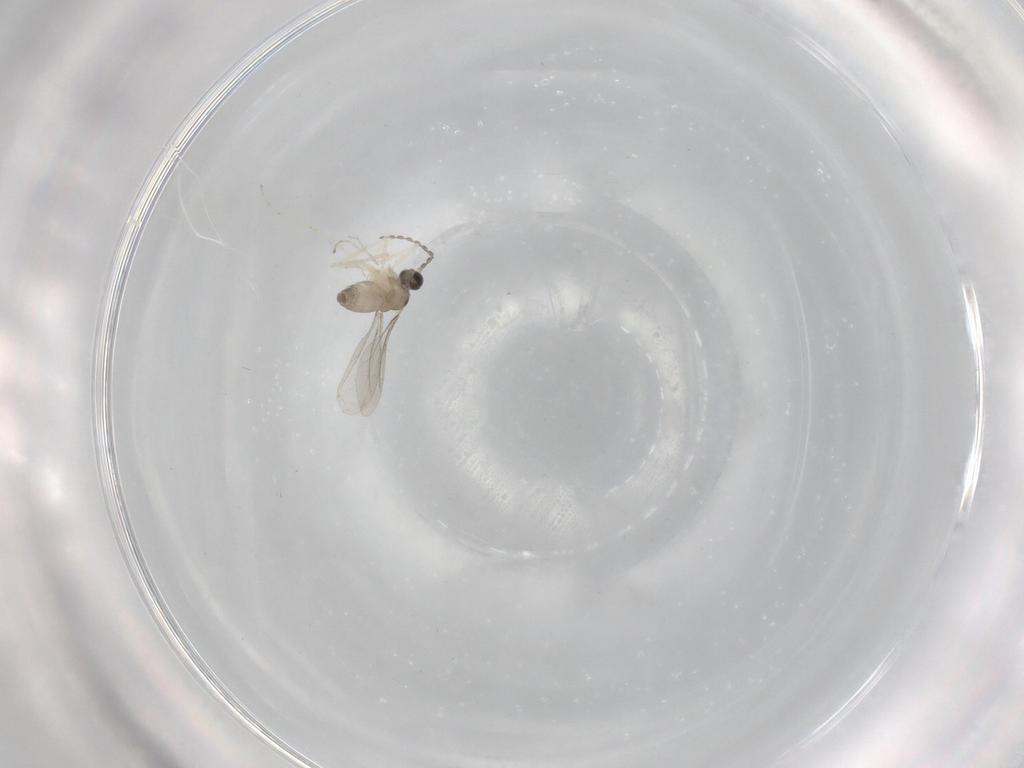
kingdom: Animalia
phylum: Arthropoda
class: Insecta
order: Diptera
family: Cecidomyiidae
